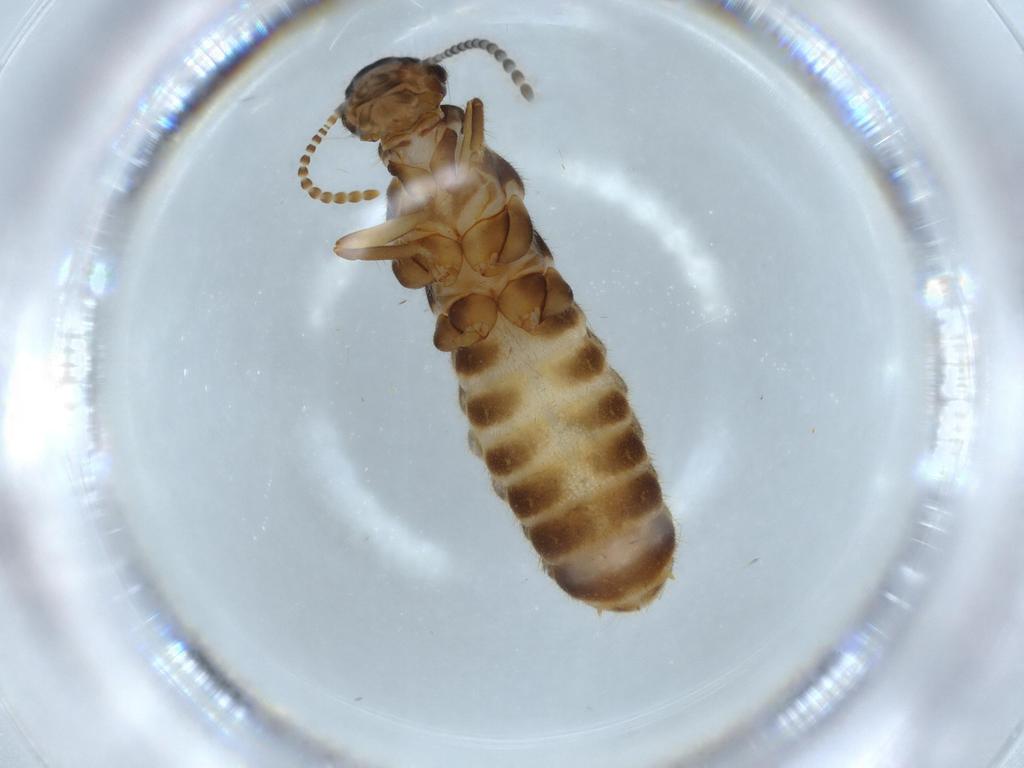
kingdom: Animalia
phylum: Arthropoda
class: Insecta
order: Blattodea
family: Termitidae
